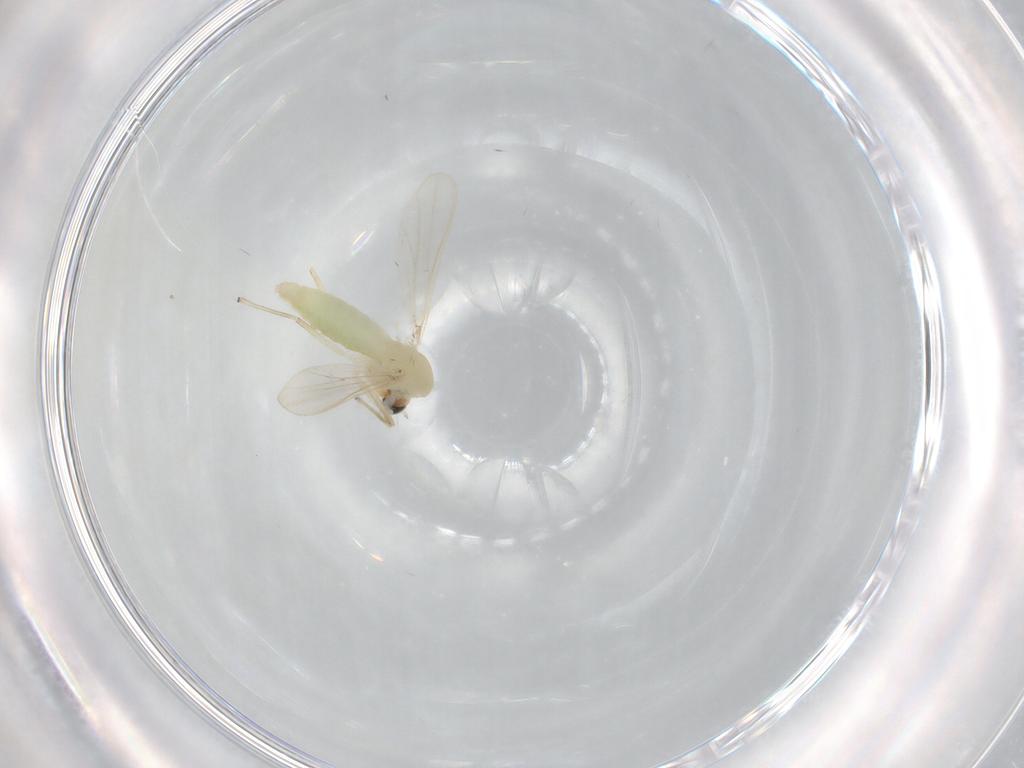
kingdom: Animalia
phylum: Arthropoda
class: Insecta
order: Diptera
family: Chironomidae
